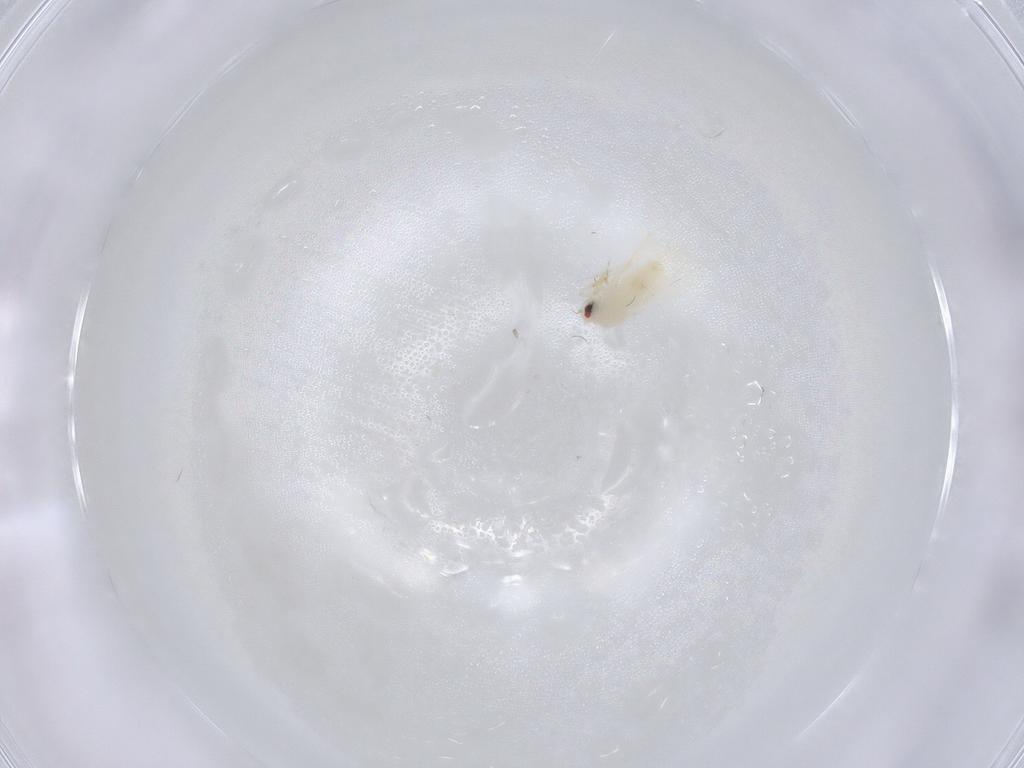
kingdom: Animalia
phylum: Arthropoda
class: Insecta
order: Hemiptera
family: Aleyrodidae
